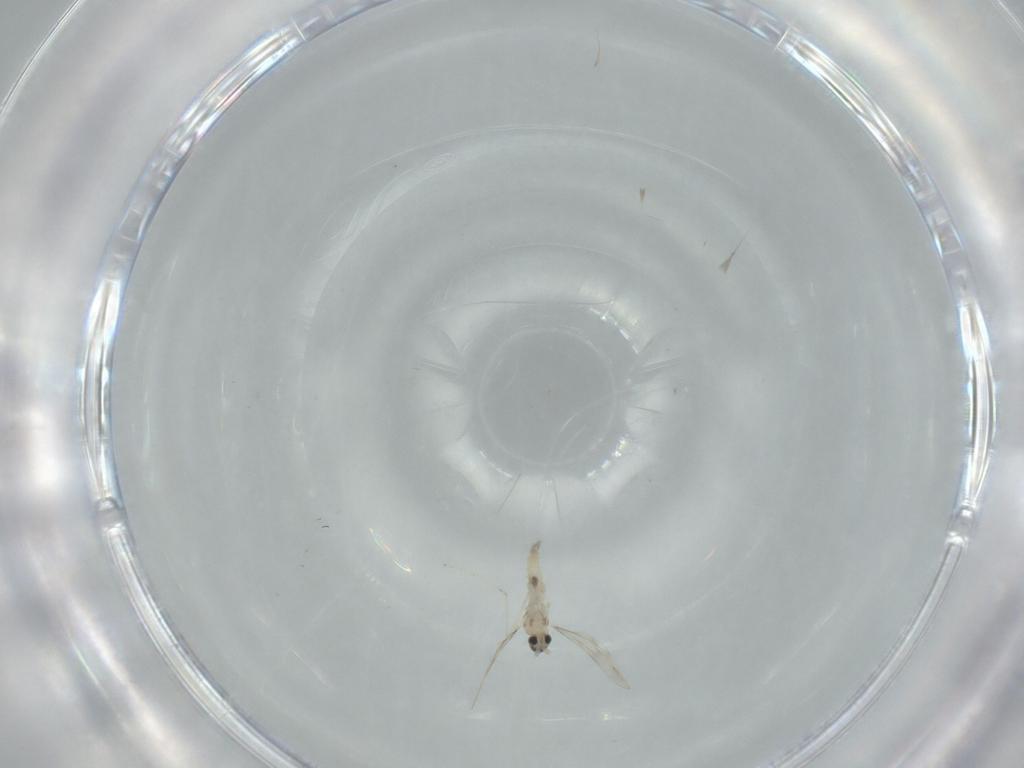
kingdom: Animalia
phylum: Arthropoda
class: Insecta
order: Diptera
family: Cecidomyiidae
